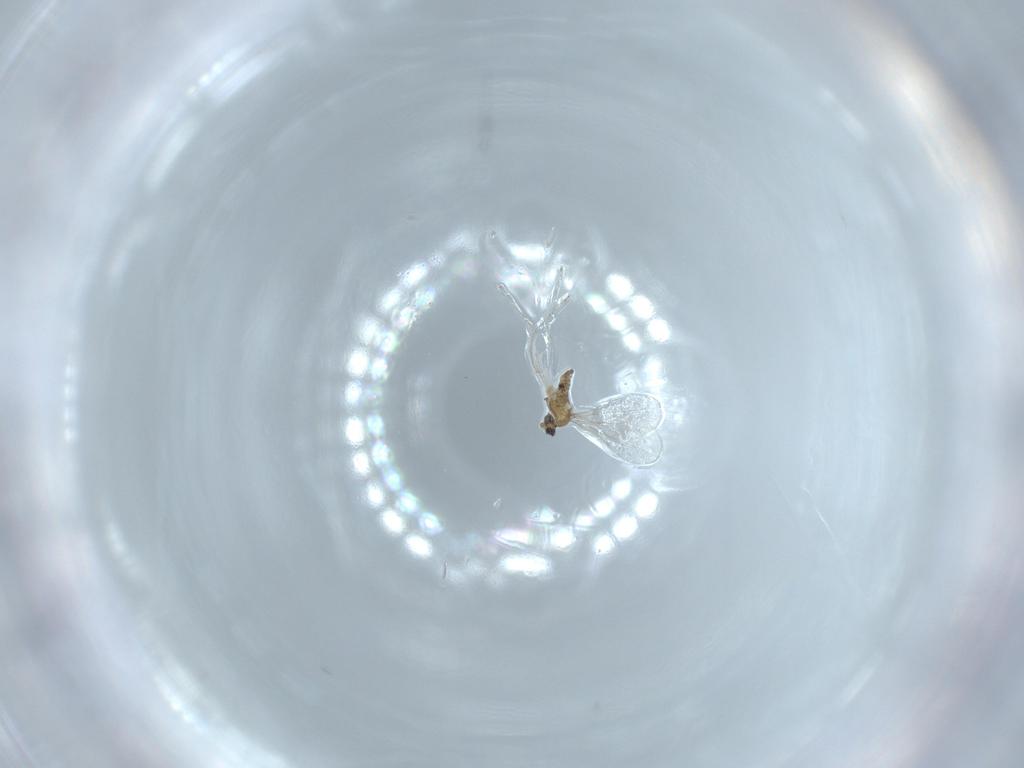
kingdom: Animalia
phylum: Arthropoda
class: Insecta
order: Diptera
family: Cecidomyiidae
